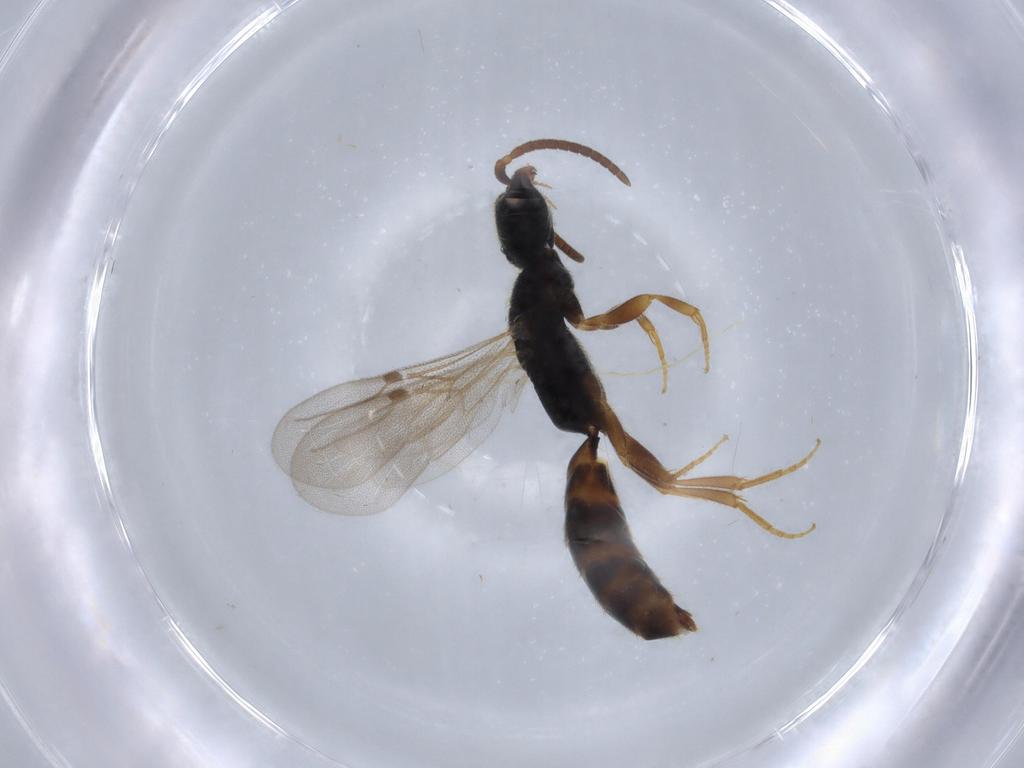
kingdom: Animalia
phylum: Arthropoda
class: Insecta
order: Hymenoptera
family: Bethylidae
